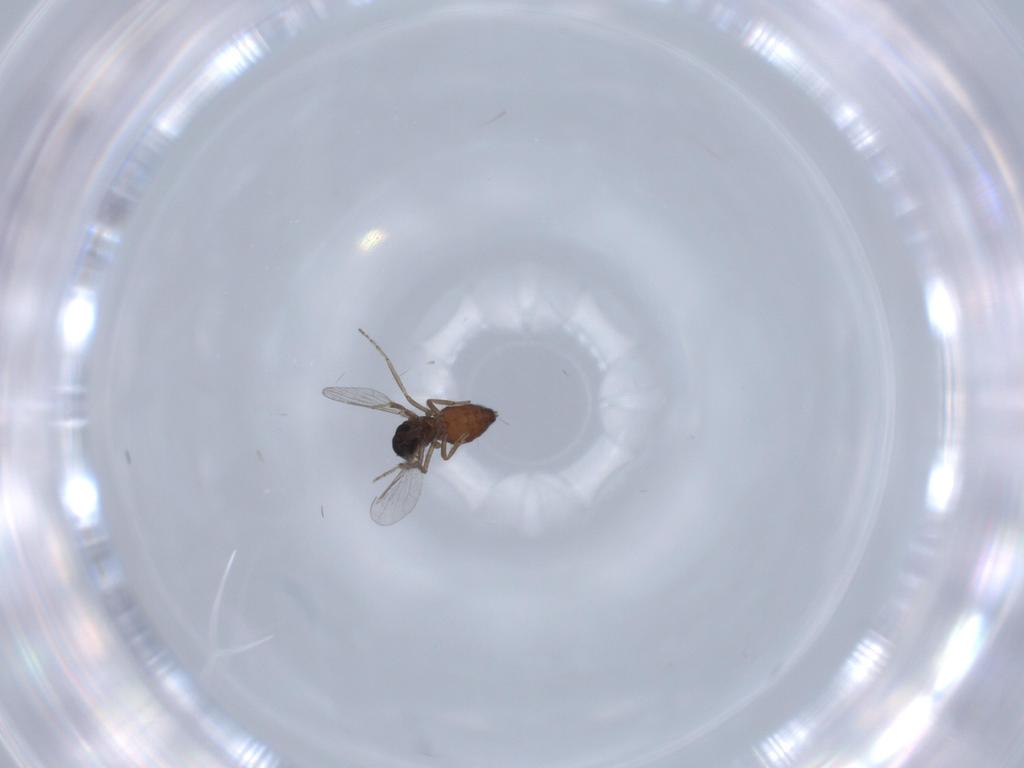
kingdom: Animalia
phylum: Arthropoda
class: Insecta
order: Diptera
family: Ceratopogonidae
